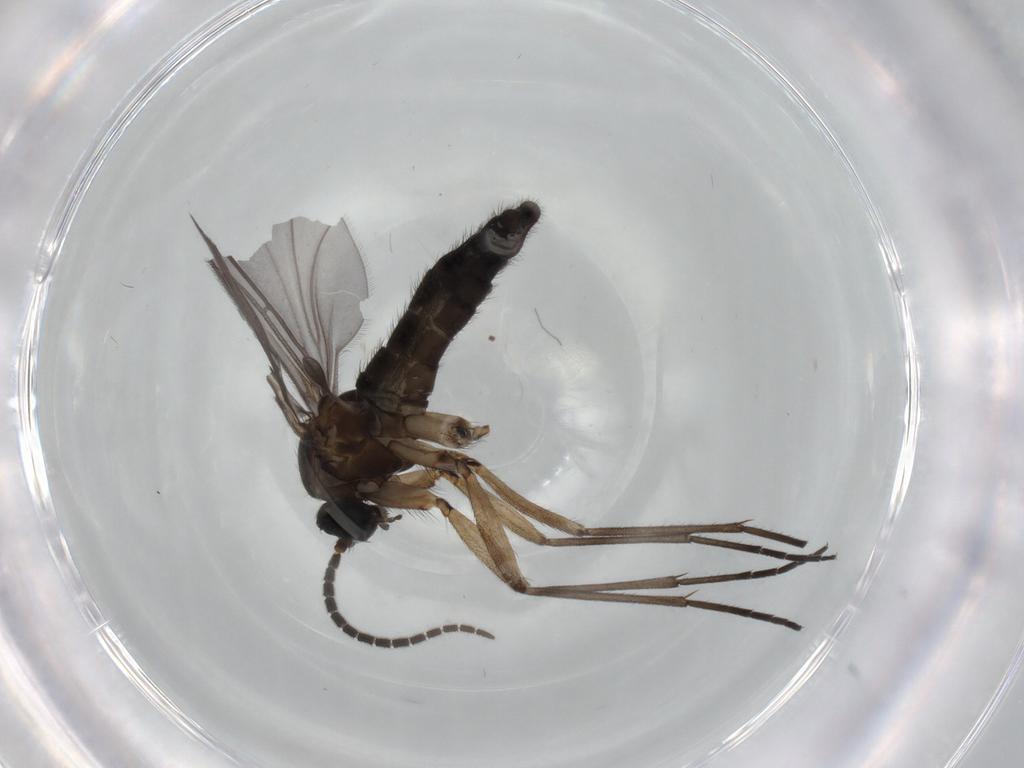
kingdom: Animalia
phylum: Arthropoda
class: Insecta
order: Diptera
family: Sciaridae
